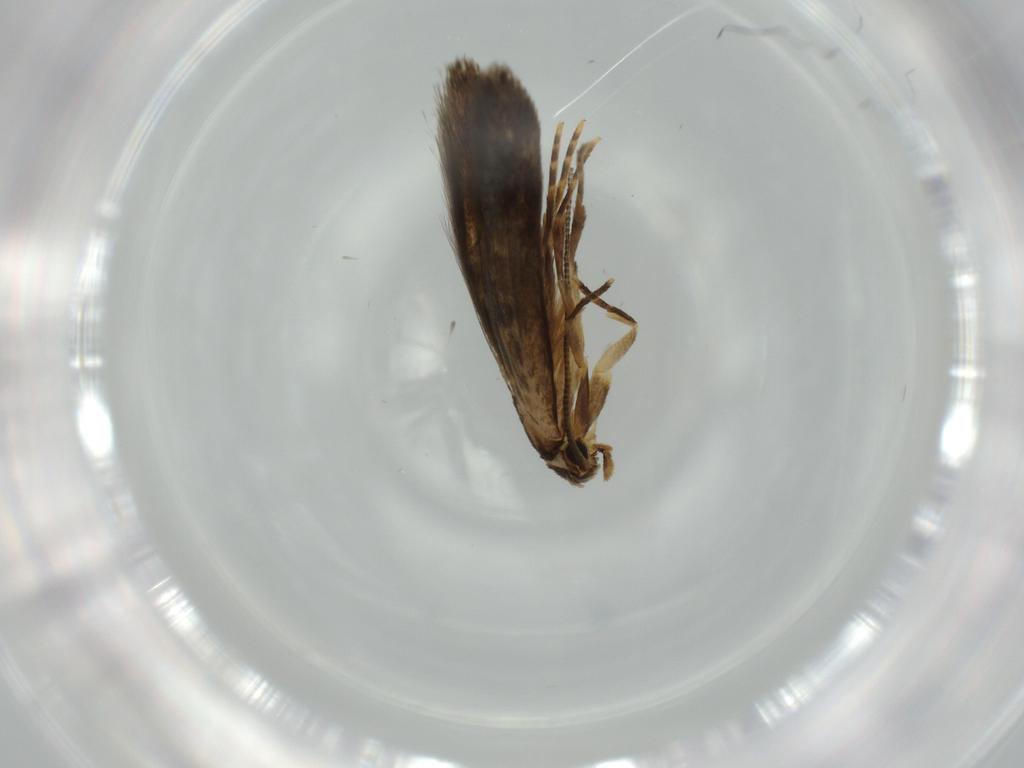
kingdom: Animalia
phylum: Arthropoda
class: Insecta
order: Lepidoptera
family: Tineidae
